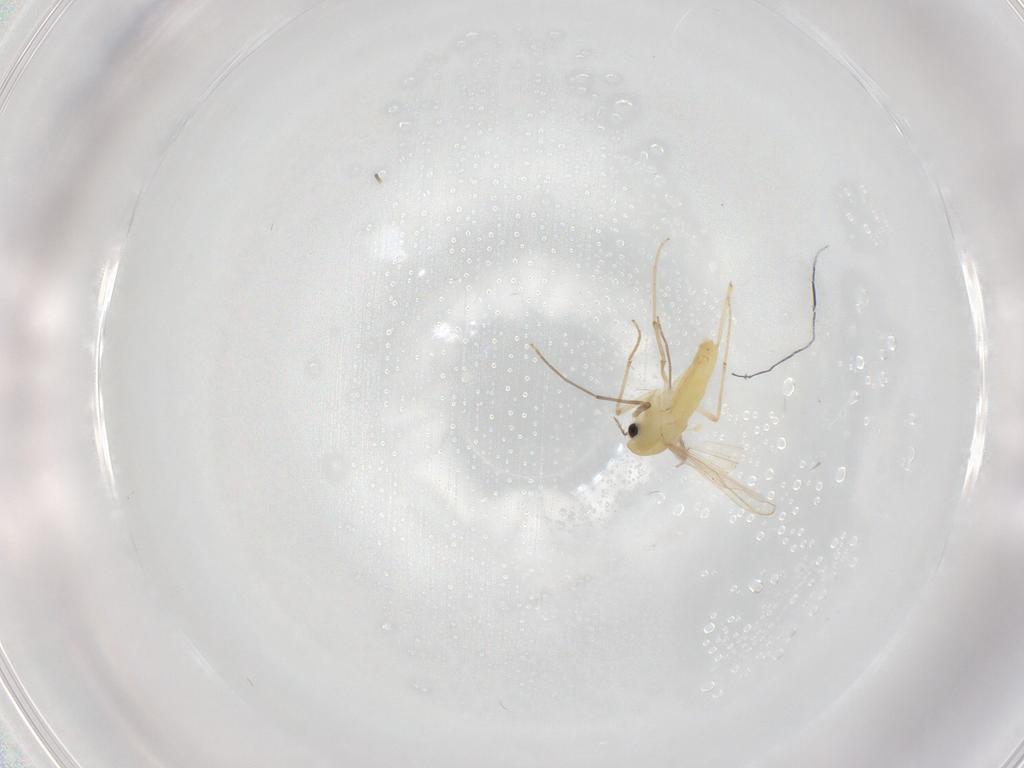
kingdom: Animalia
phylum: Arthropoda
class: Insecta
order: Diptera
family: Chironomidae
